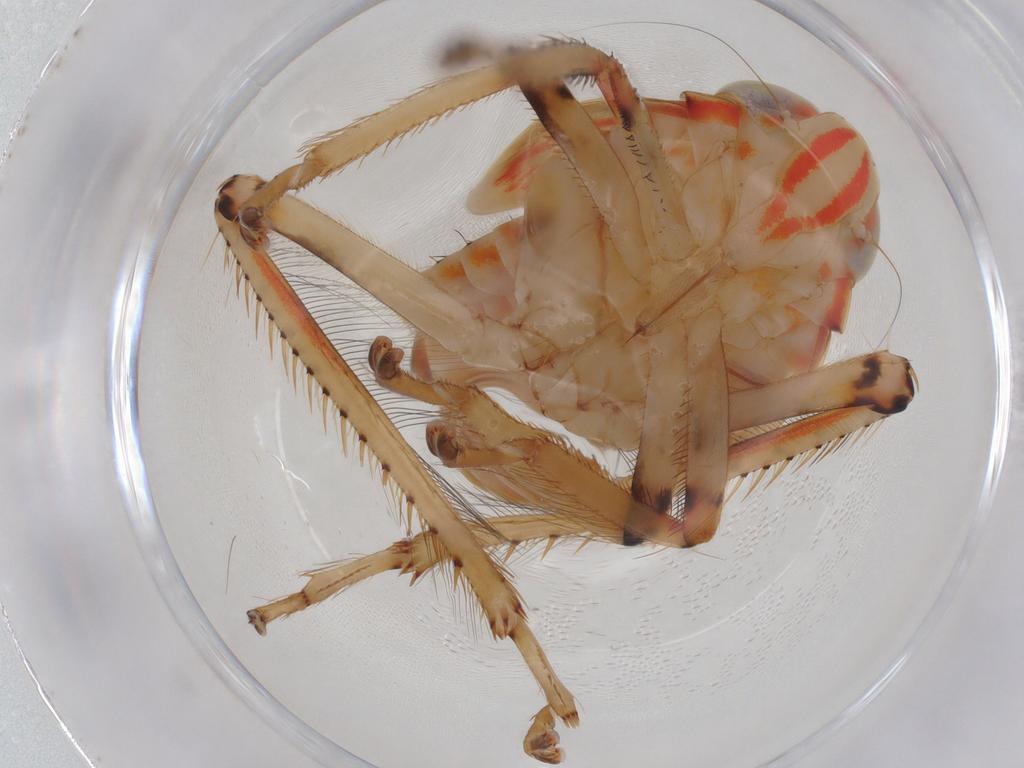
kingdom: Animalia
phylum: Arthropoda
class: Insecta
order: Hemiptera
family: Cicadellidae
